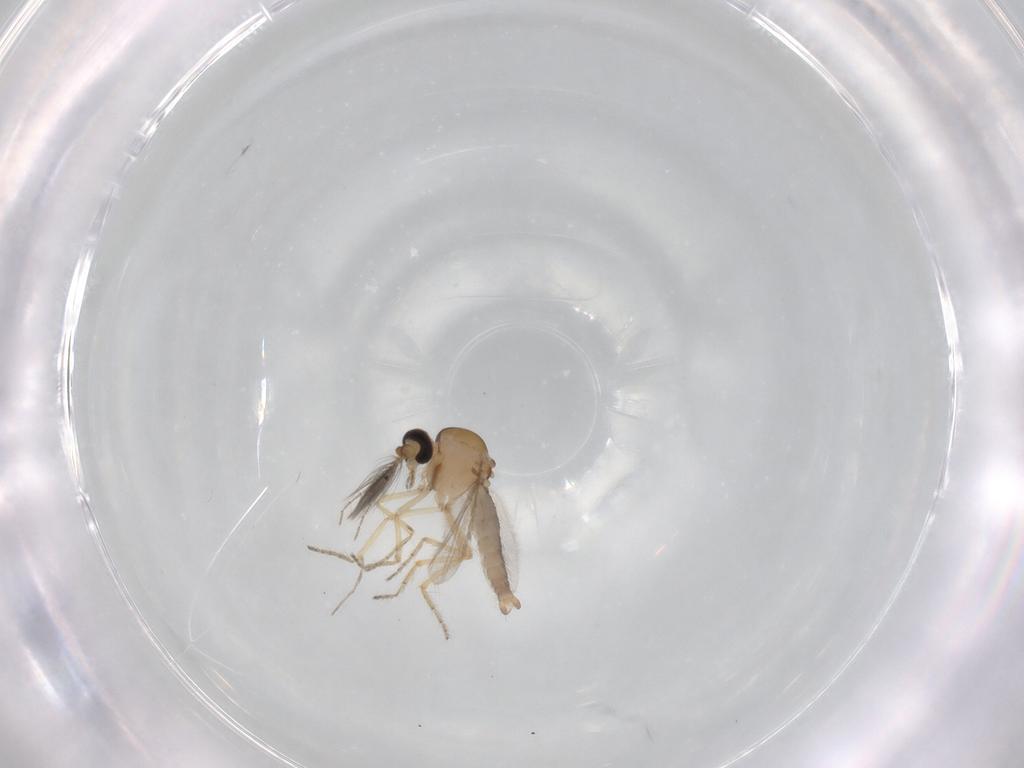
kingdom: Animalia
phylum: Arthropoda
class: Insecta
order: Diptera
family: Ceratopogonidae
